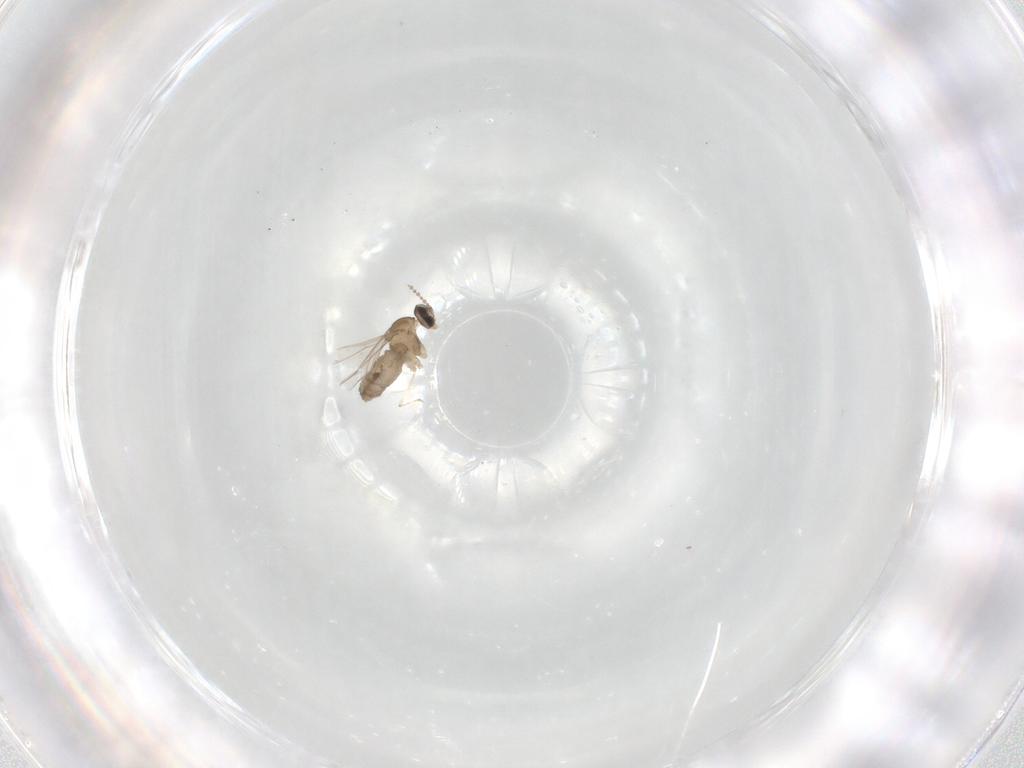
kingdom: Animalia
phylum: Arthropoda
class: Insecta
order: Diptera
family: Cecidomyiidae
